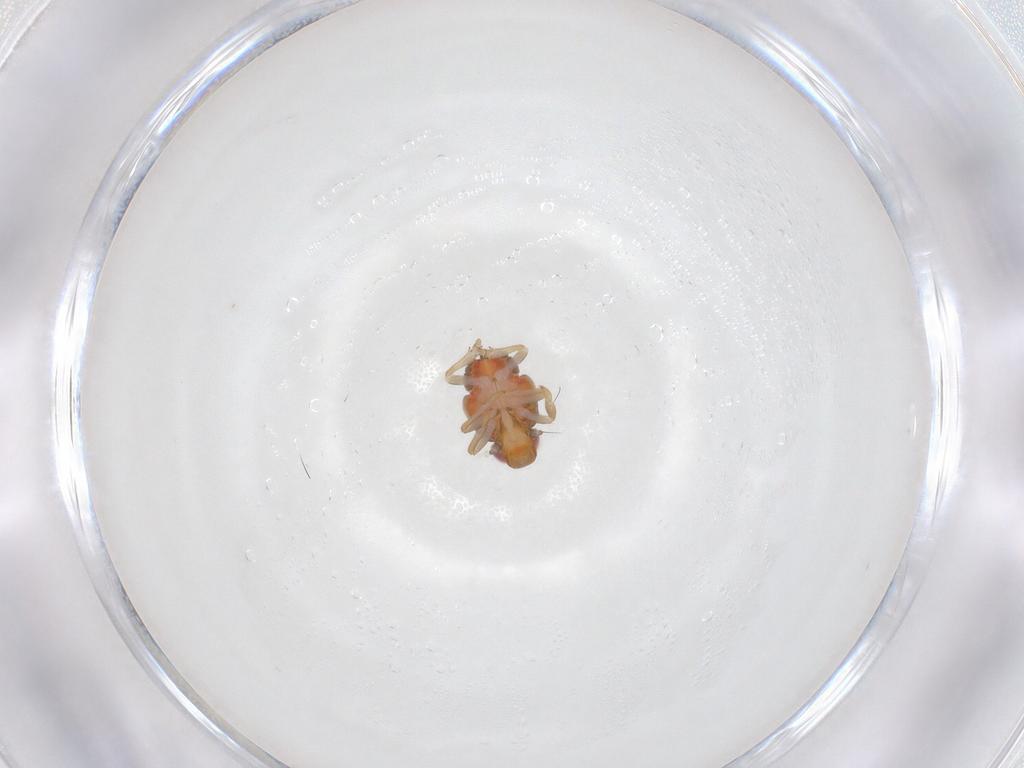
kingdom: Animalia
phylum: Arthropoda
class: Insecta
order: Hemiptera
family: Issidae
